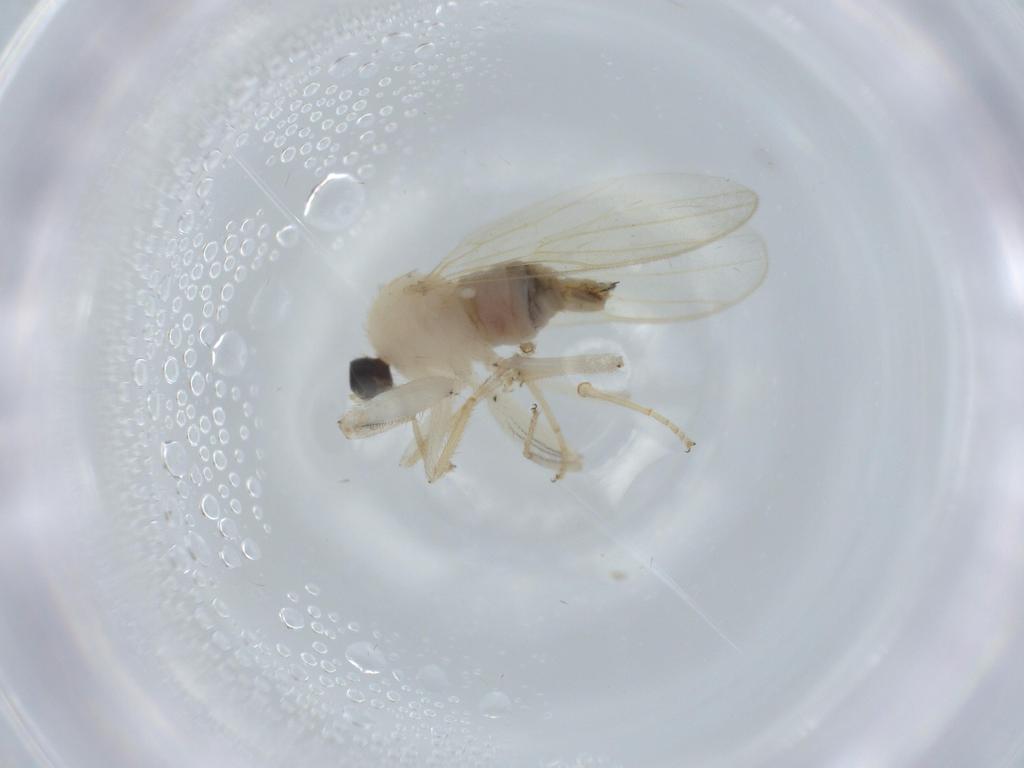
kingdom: Animalia
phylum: Arthropoda
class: Insecta
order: Diptera
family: Hybotidae
